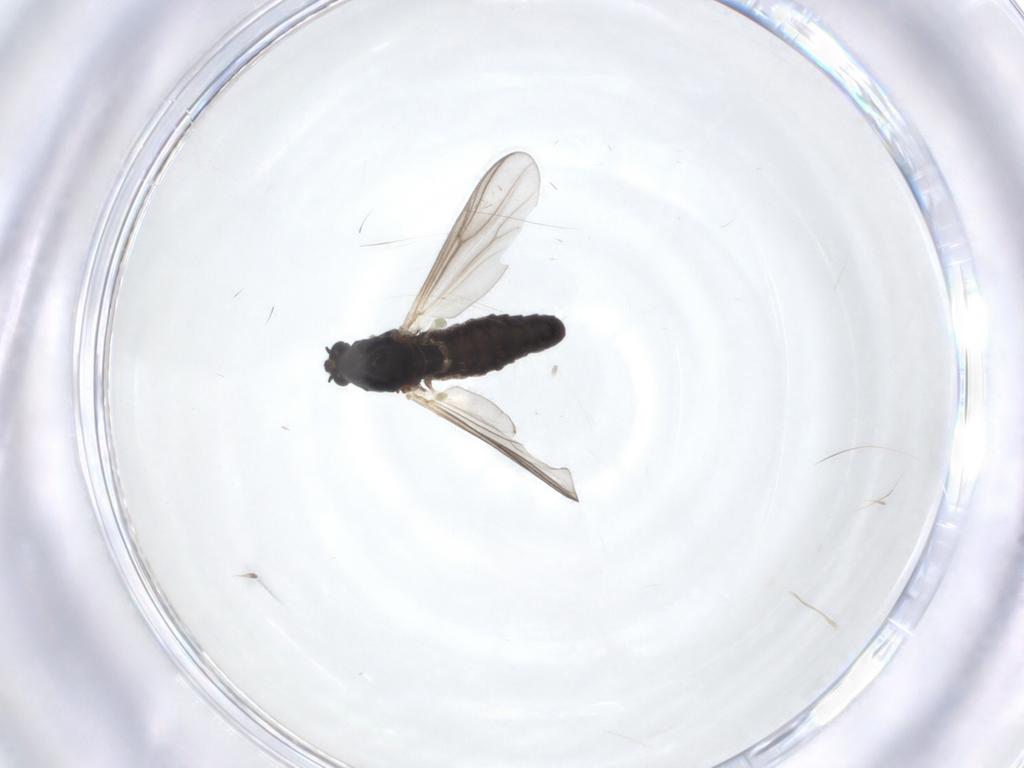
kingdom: Animalia
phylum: Arthropoda
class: Insecta
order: Diptera
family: Chironomidae
